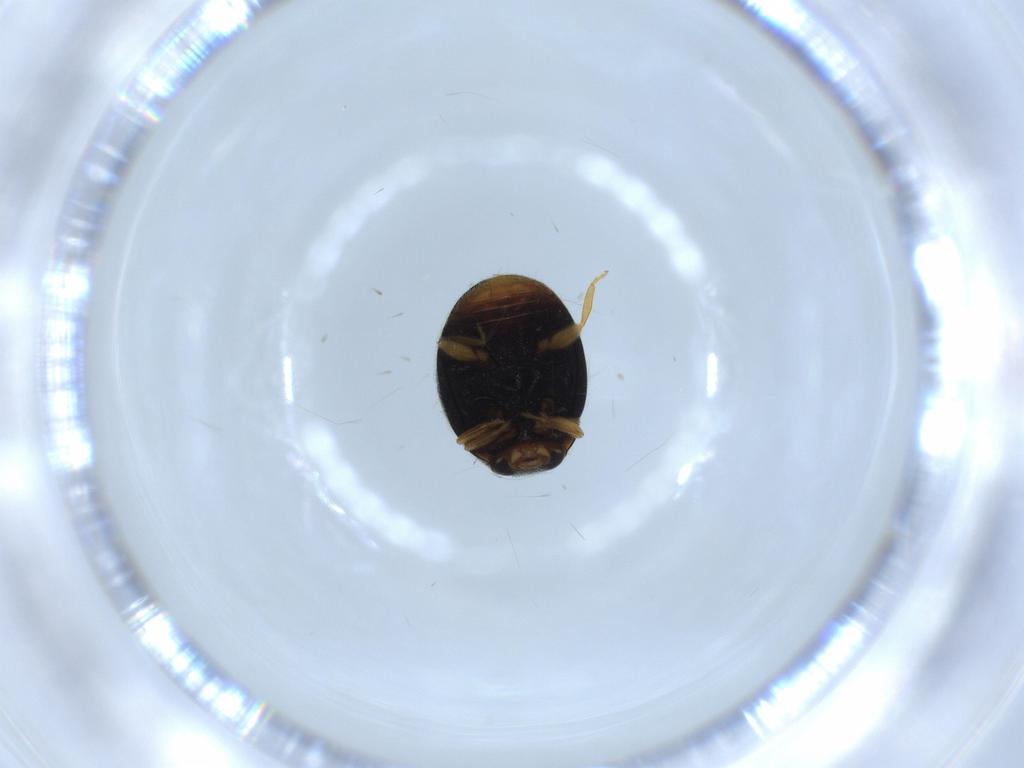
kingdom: Animalia
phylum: Arthropoda
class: Insecta
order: Coleoptera
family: Coccinellidae
